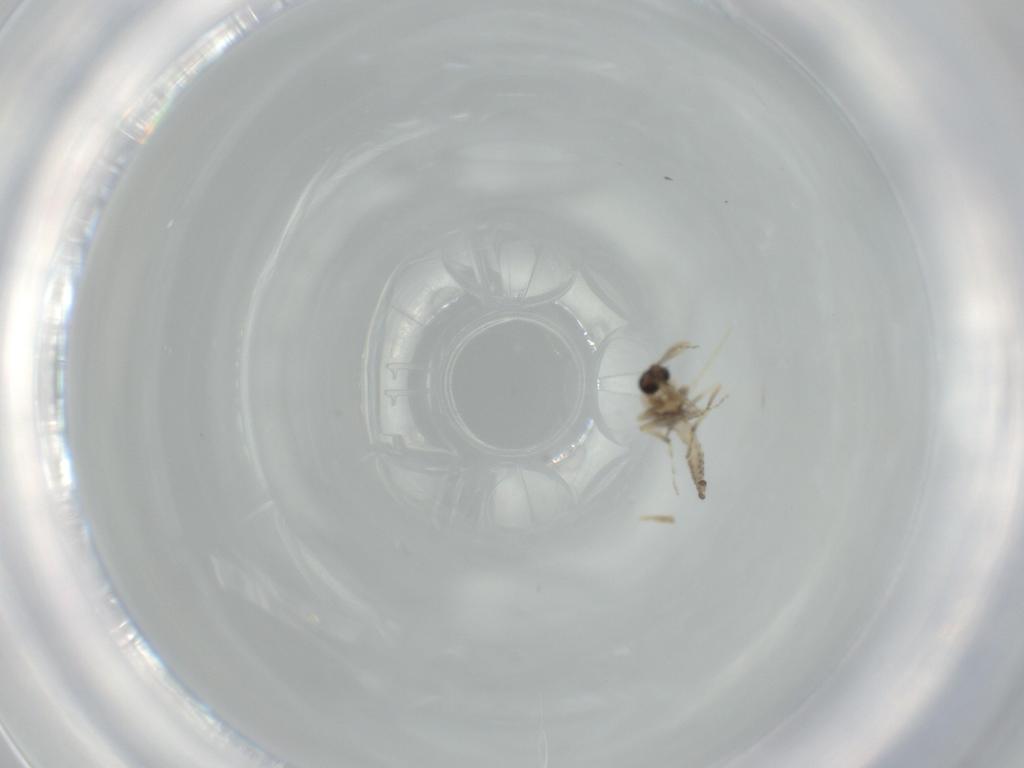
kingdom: Animalia
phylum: Arthropoda
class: Insecta
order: Diptera
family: Ceratopogonidae
